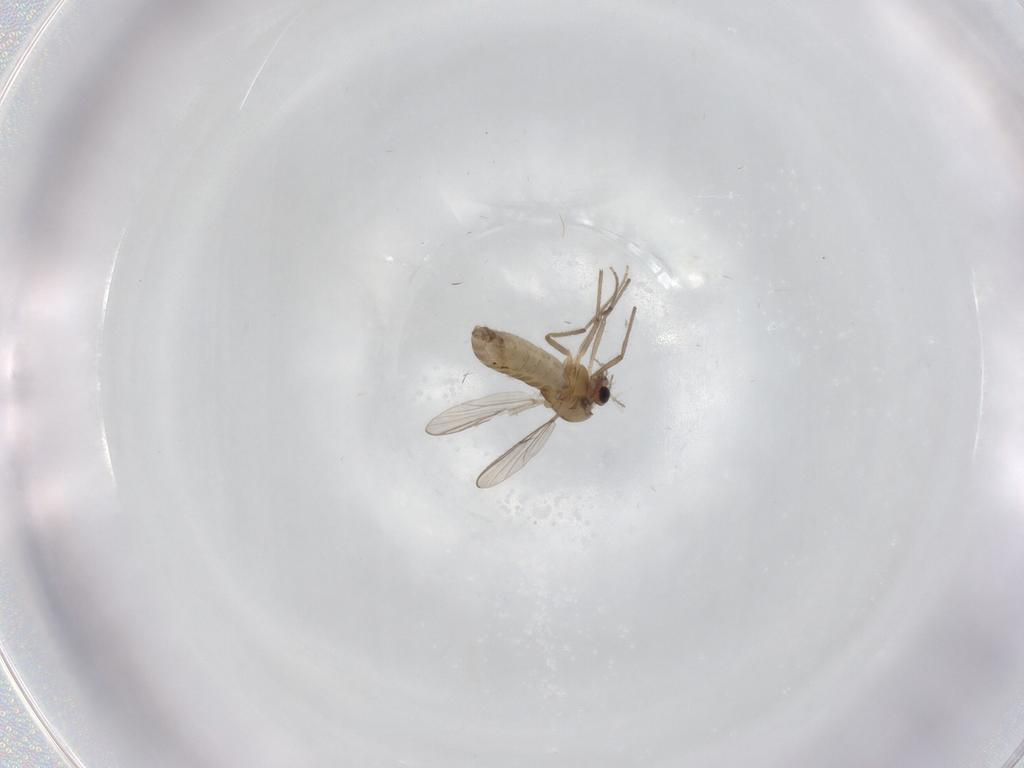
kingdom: Animalia
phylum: Arthropoda
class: Insecta
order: Diptera
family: Chironomidae
